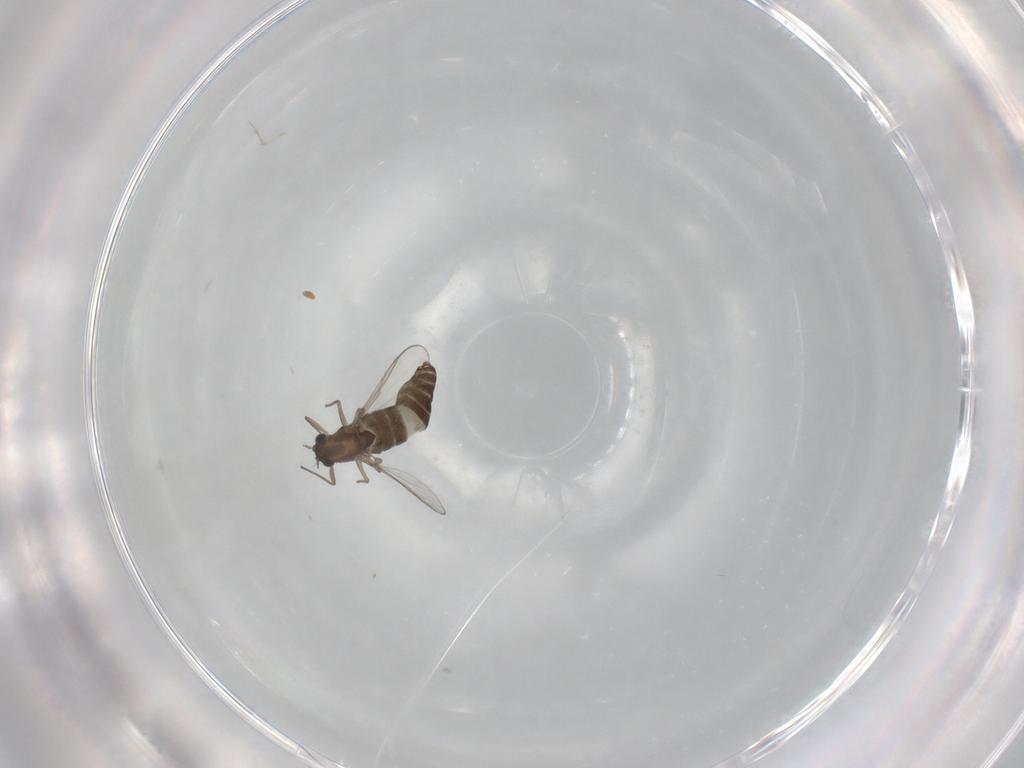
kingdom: Animalia
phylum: Arthropoda
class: Insecta
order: Diptera
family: Chironomidae
